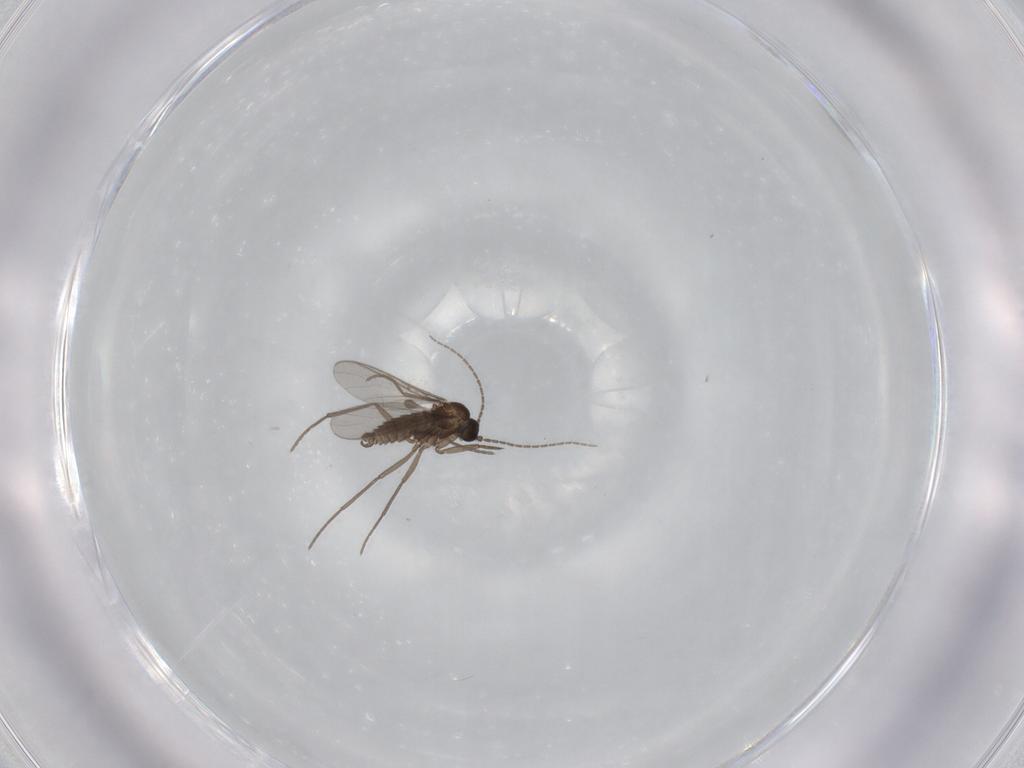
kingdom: Animalia
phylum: Arthropoda
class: Insecta
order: Diptera
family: Sciaridae
